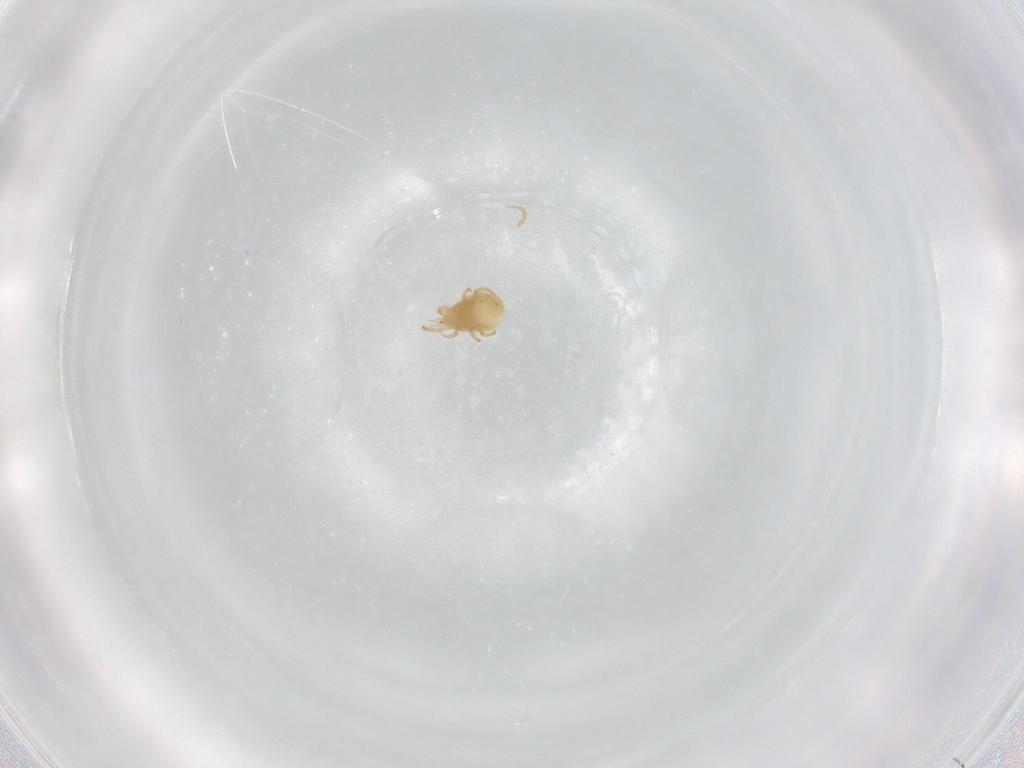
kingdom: Animalia
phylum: Arthropoda
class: Arachnida
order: Mesostigmata
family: Phytoseiidae
